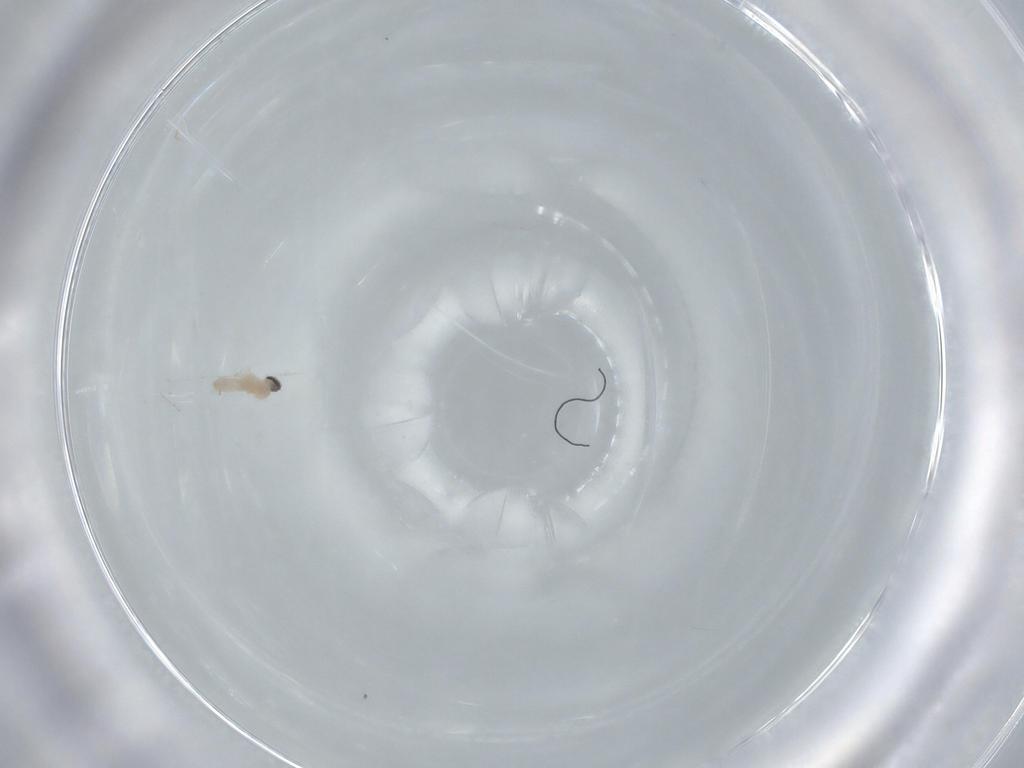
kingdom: Animalia
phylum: Arthropoda
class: Insecta
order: Diptera
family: Cecidomyiidae
